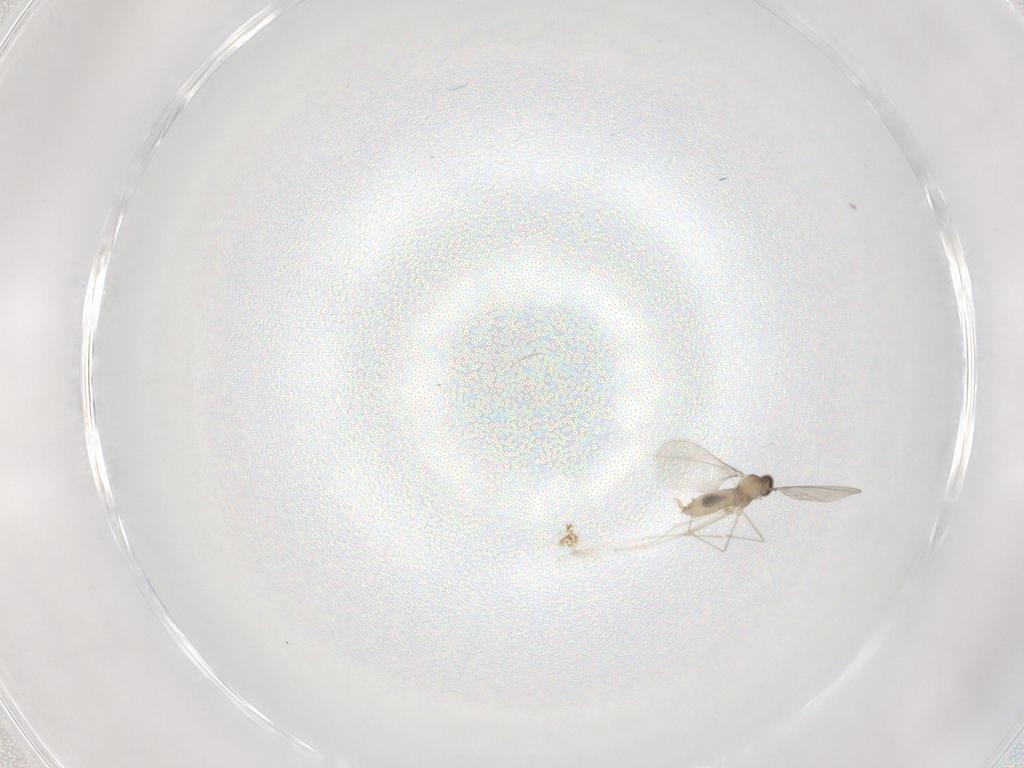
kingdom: Animalia
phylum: Arthropoda
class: Insecta
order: Diptera
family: Cecidomyiidae
